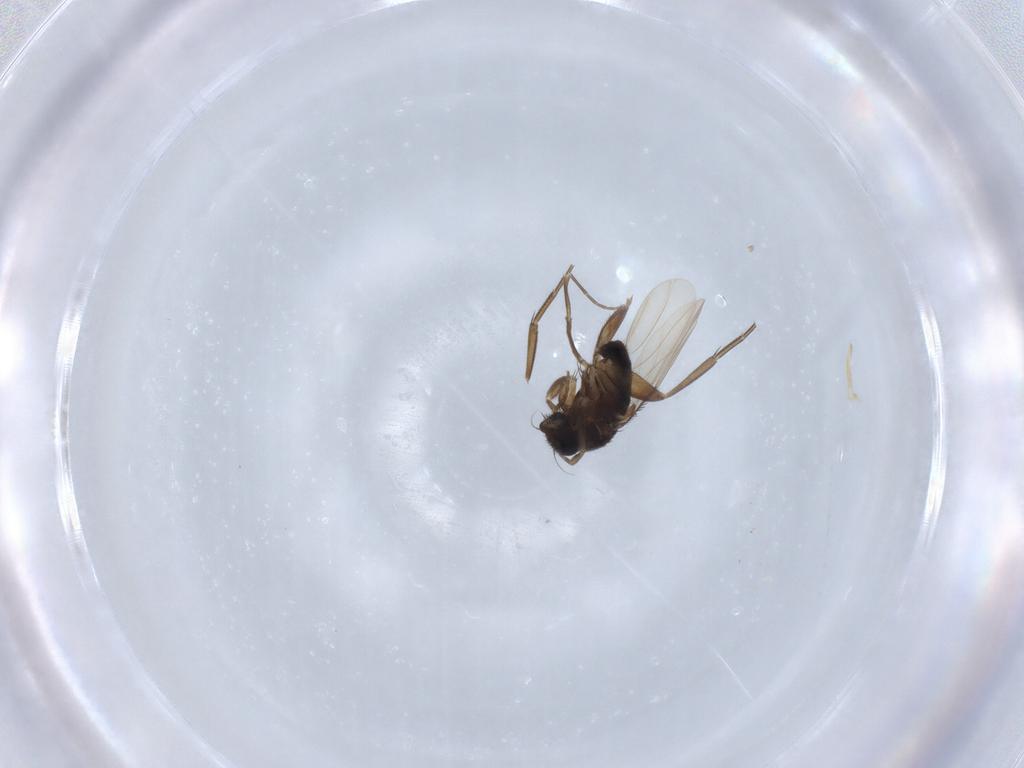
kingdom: Animalia
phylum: Arthropoda
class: Insecta
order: Diptera
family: Phoridae
